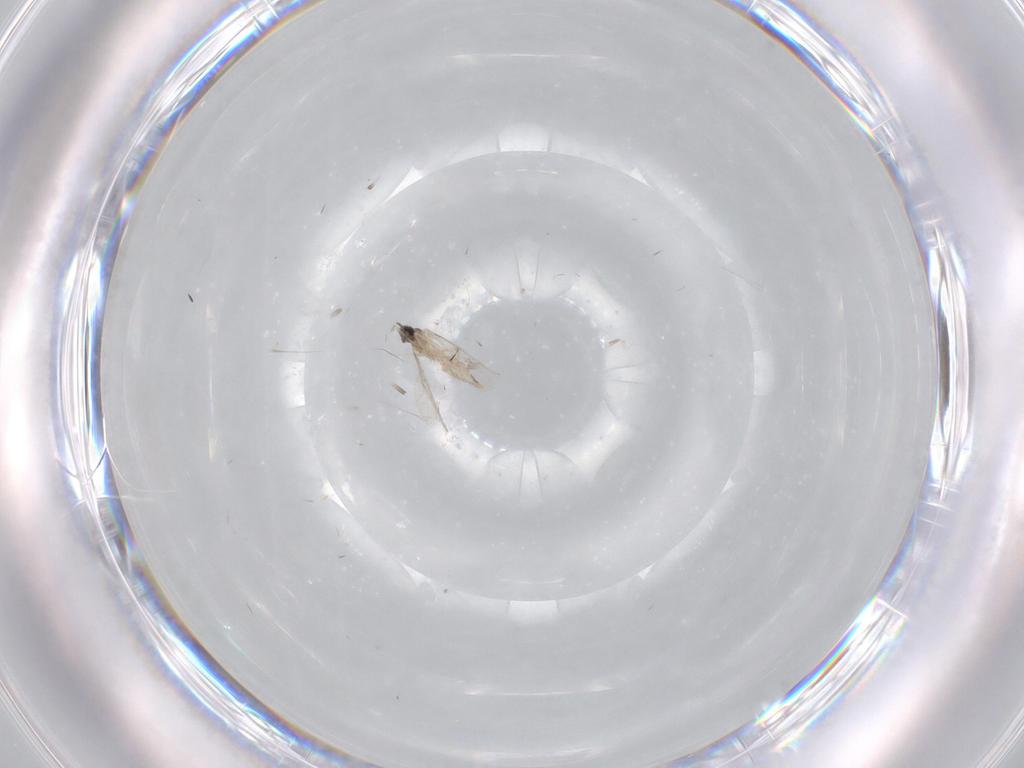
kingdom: Animalia
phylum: Arthropoda
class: Insecta
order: Diptera
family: Cecidomyiidae
